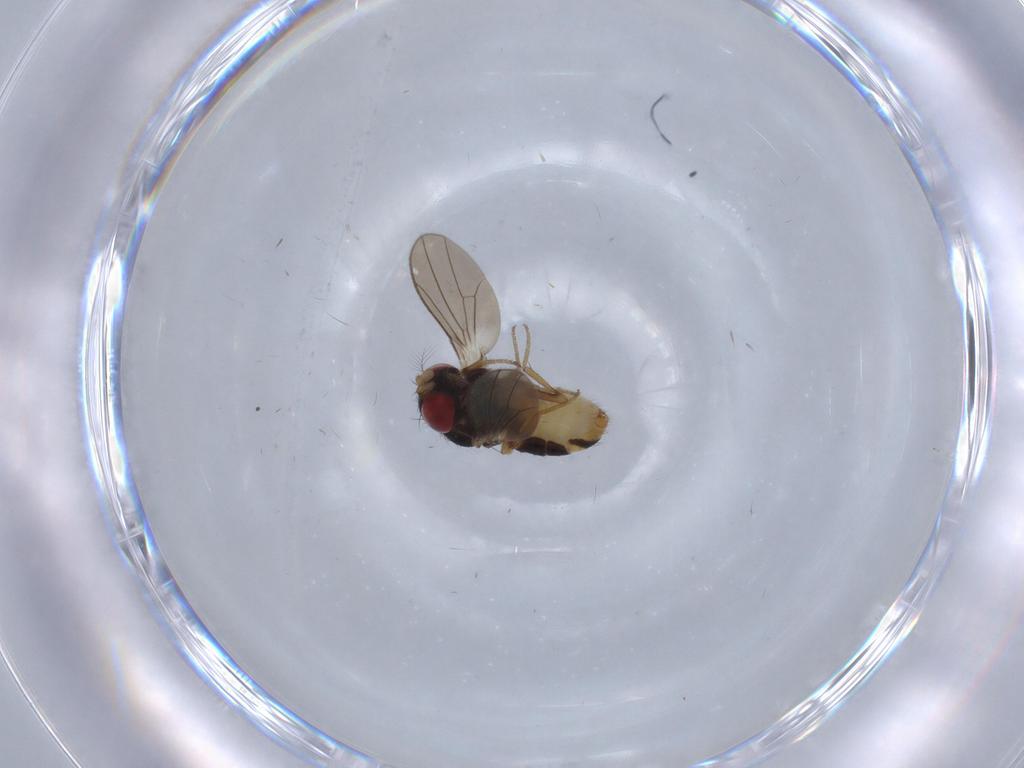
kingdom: Animalia
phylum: Arthropoda
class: Insecta
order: Diptera
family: Drosophilidae
